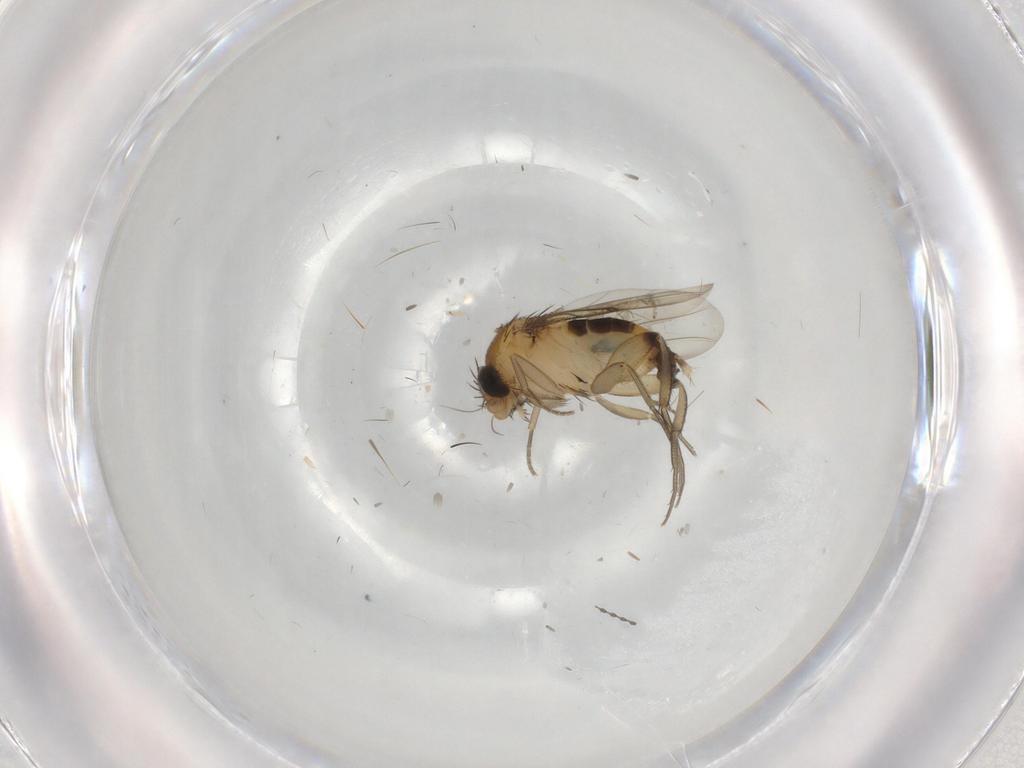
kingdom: Animalia
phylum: Arthropoda
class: Insecta
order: Diptera
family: Phoridae
